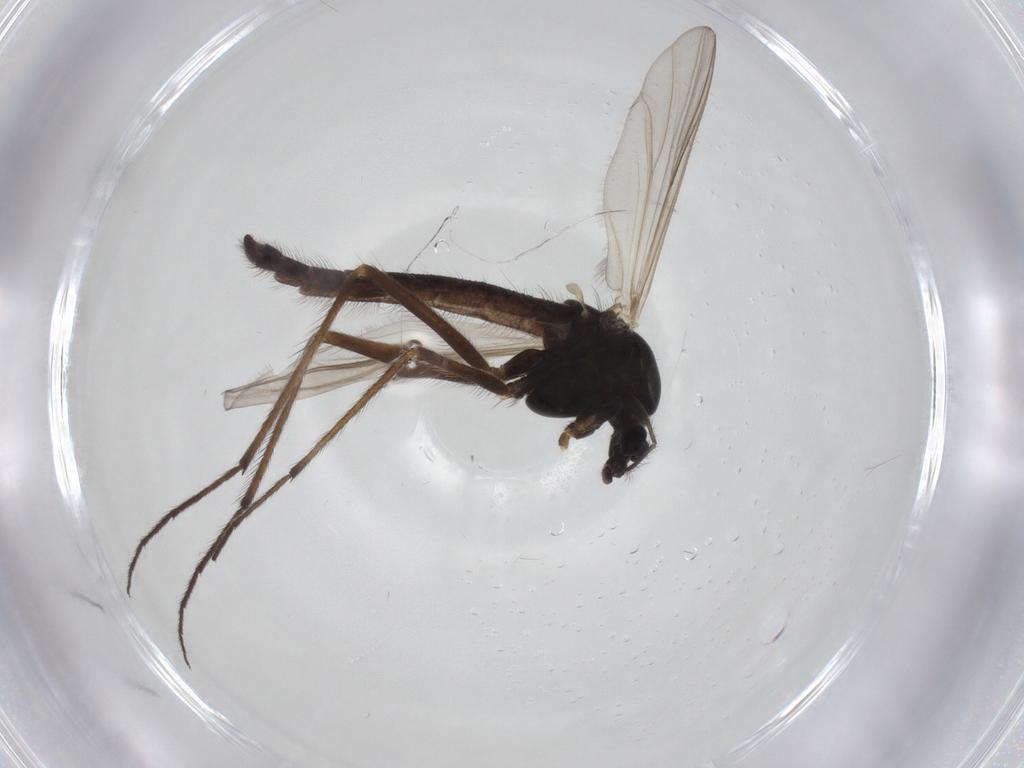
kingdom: Animalia
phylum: Arthropoda
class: Insecta
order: Diptera
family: Chironomidae
